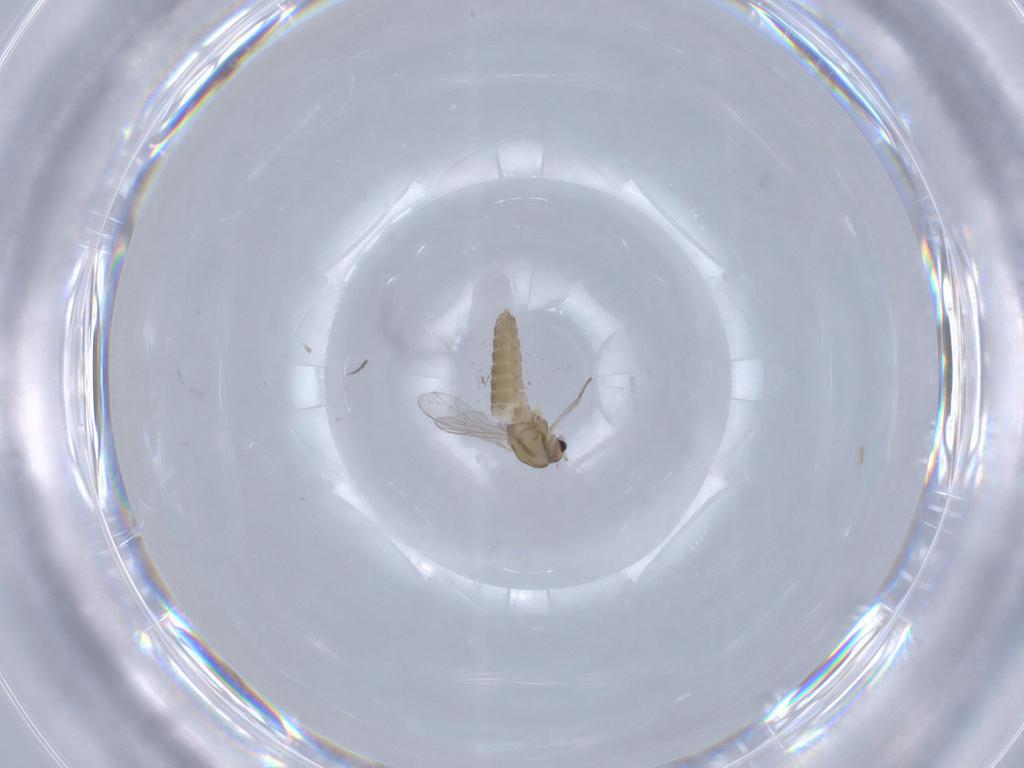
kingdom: Animalia
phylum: Arthropoda
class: Insecta
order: Diptera
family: Chironomidae
